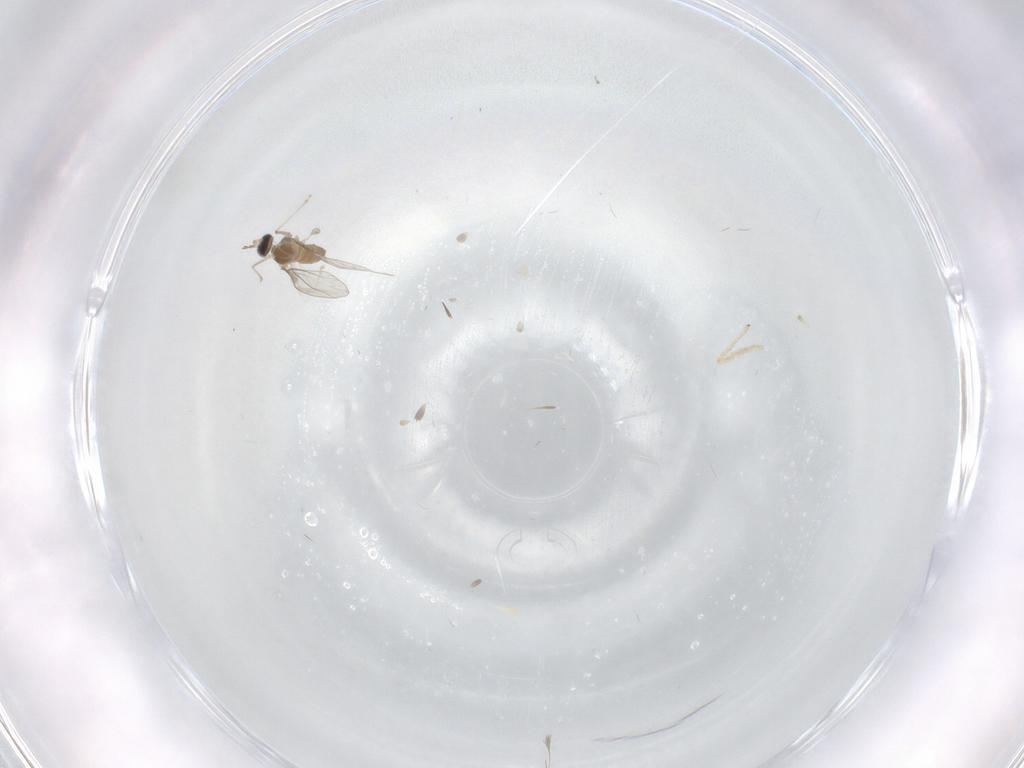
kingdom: Animalia
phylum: Arthropoda
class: Insecta
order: Diptera
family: Cecidomyiidae
